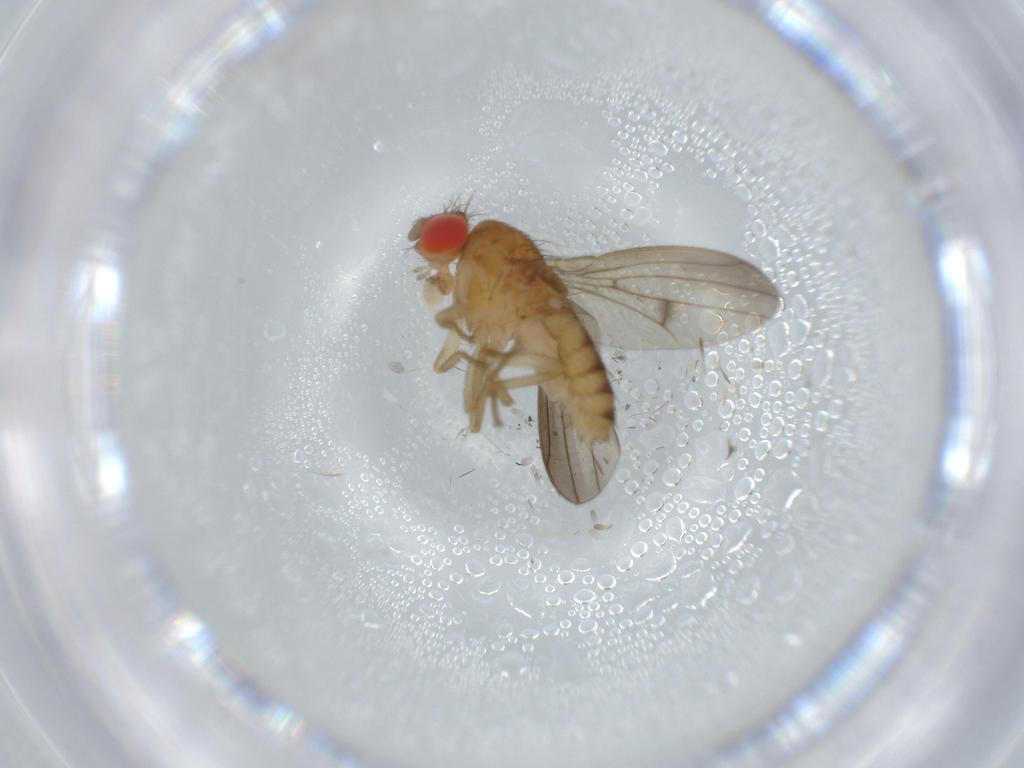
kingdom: Animalia
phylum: Arthropoda
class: Insecta
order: Diptera
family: Drosophilidae
